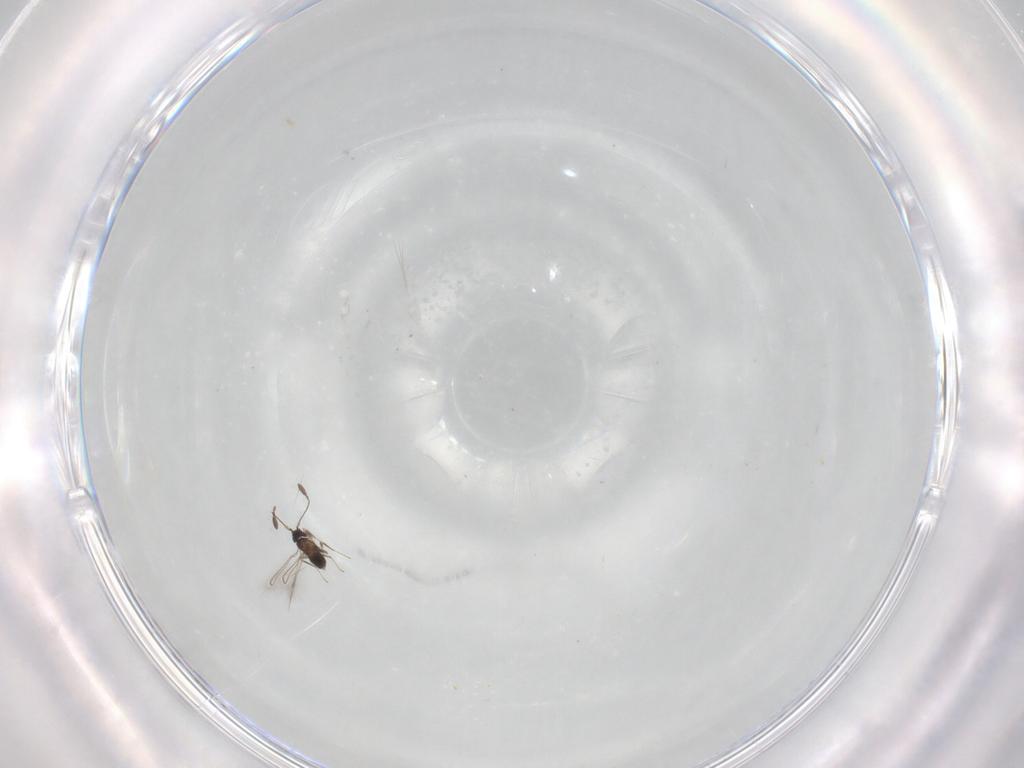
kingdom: Animalia
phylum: Arthropoda
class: Insecta
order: Hymenoptera
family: Mymaridae
